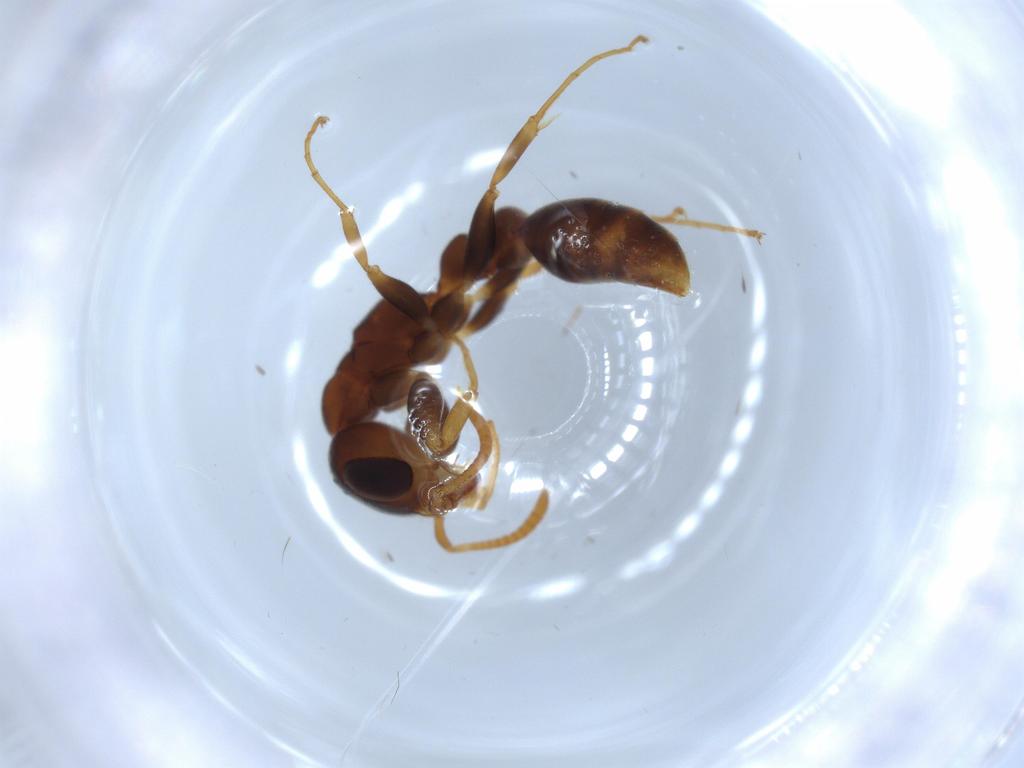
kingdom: Animalia
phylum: Arthropoda
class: Insecta
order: Hymenoptera
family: Formicidae
